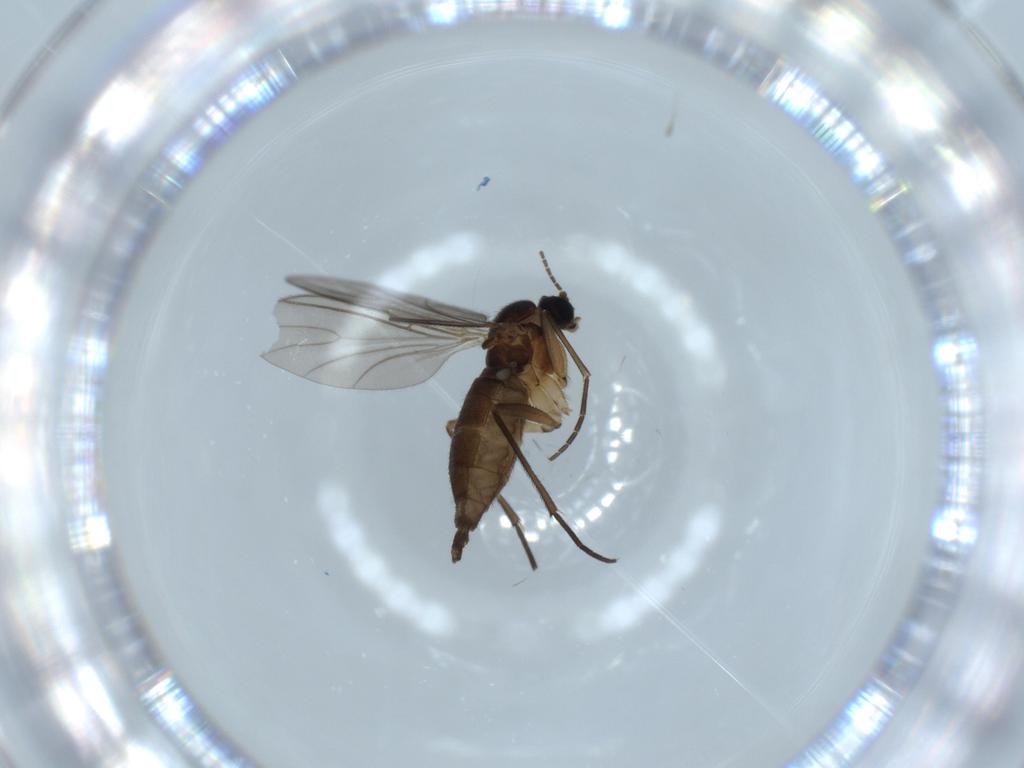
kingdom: Animalia
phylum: Arthropoda
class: Insecta
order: Diptera
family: Sciaridae
